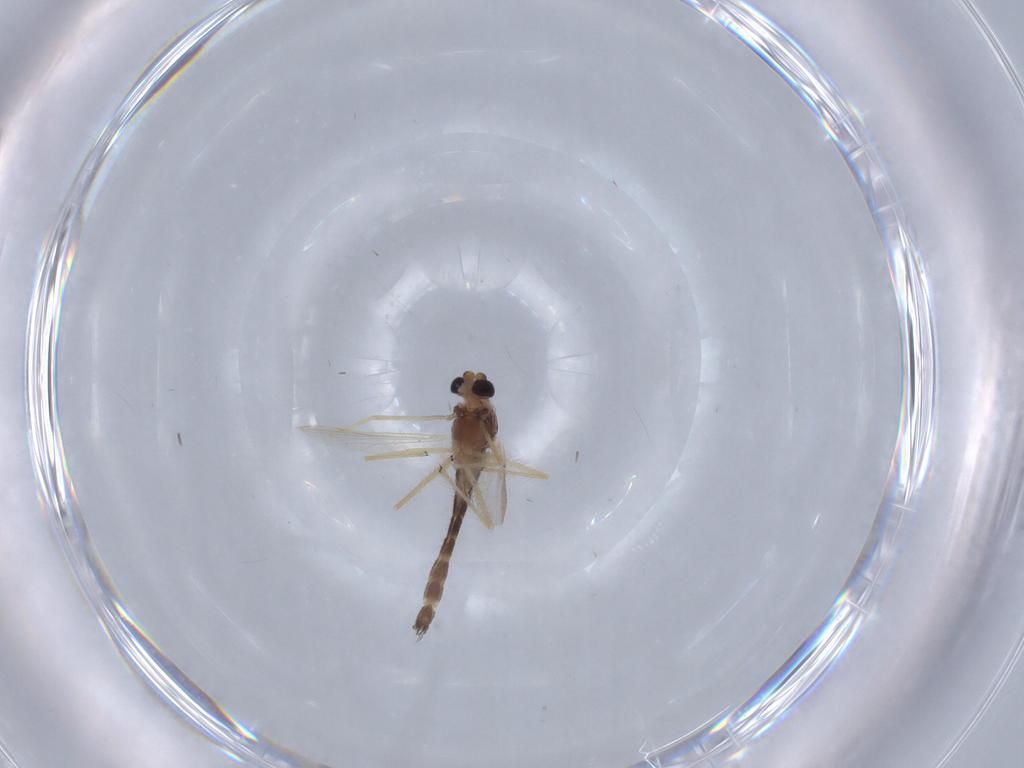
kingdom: Animalia
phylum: Arthropoda
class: Insecta
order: Diptera
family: Chironomidae
